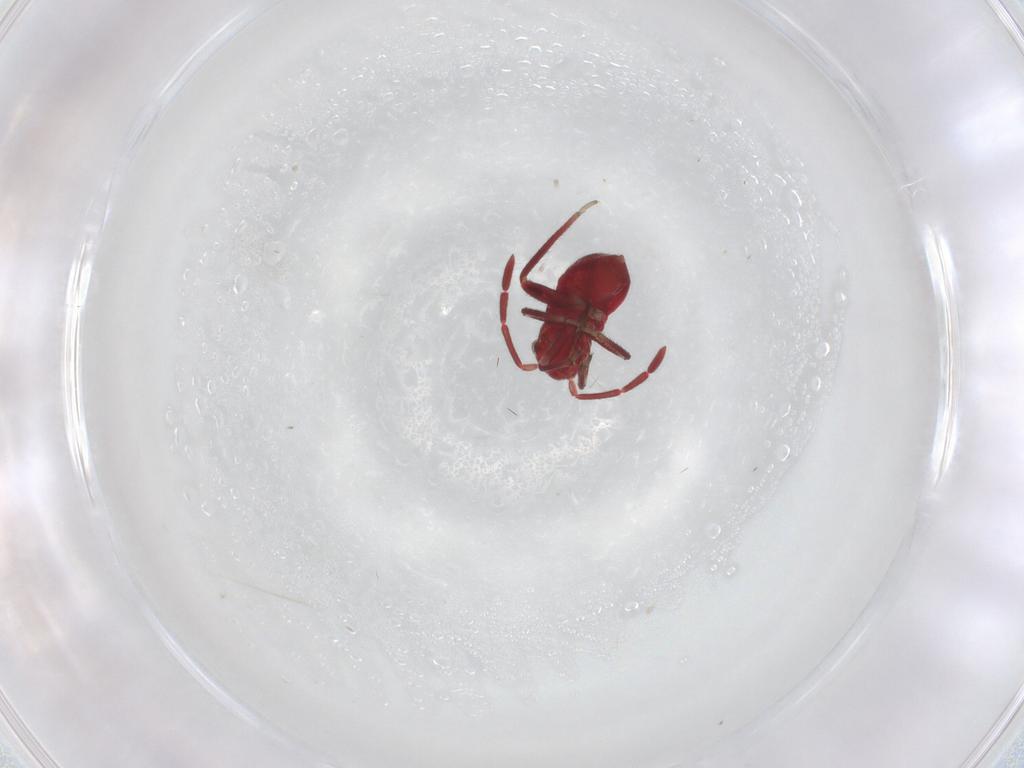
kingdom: Animalia
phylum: Arthropoda
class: Insecta
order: Hemiptera
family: Miridae
